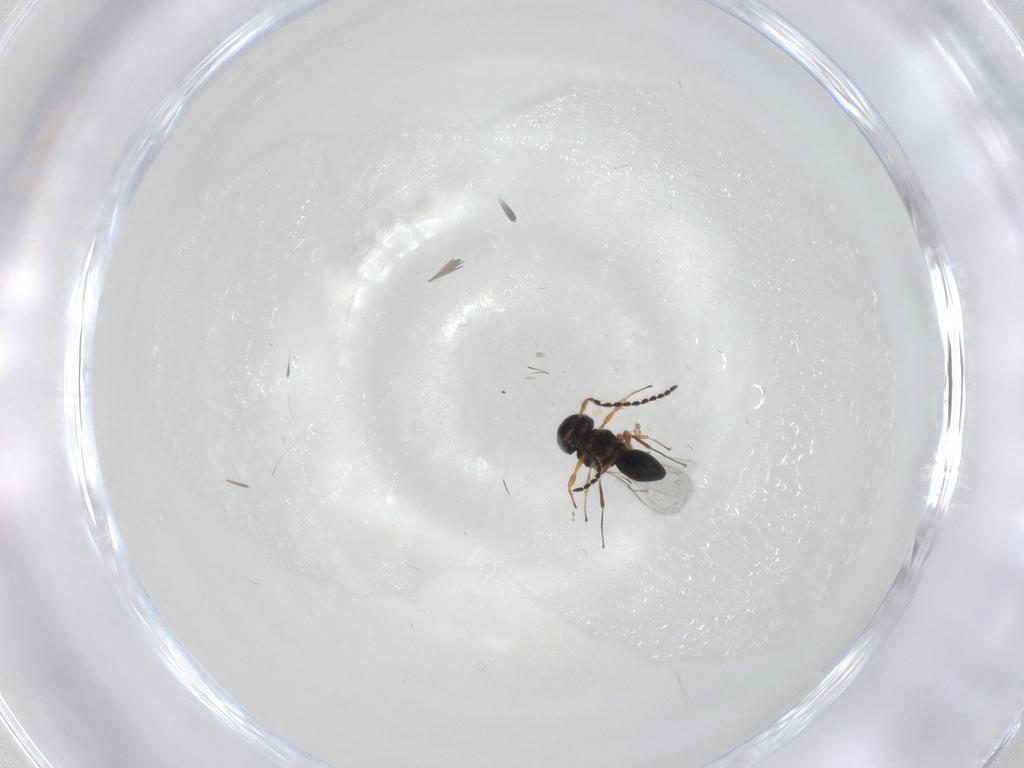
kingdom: Animalia
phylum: Arthropoda
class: Insecta
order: Hymenoptera
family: Scelionidae
